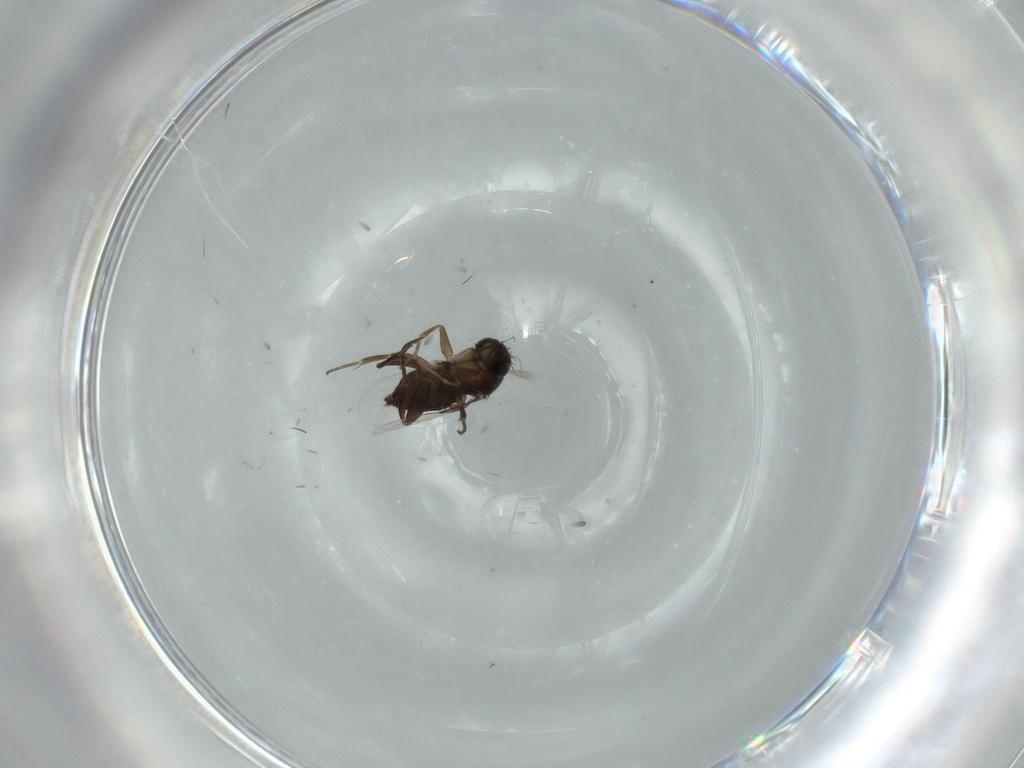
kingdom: Animalia
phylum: Arthropoda
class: Insecta
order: Diptera
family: Phoridae
